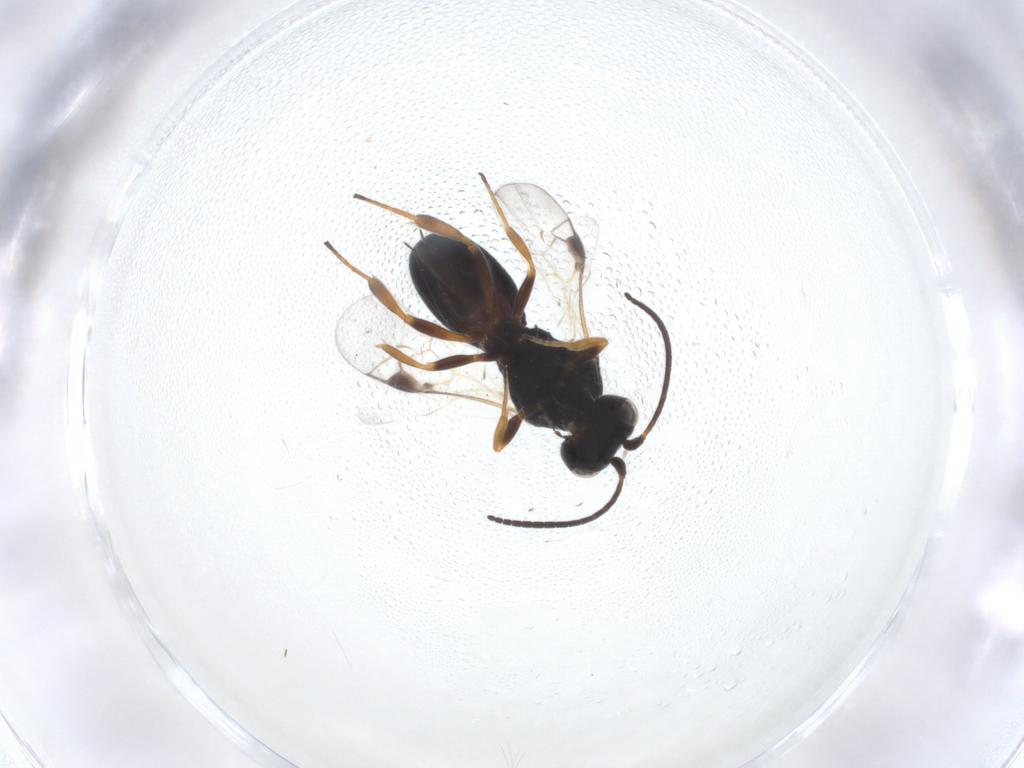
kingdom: Animalia
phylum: Arthropoda
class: Insecta
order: Hymenoptera
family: Braconidae
